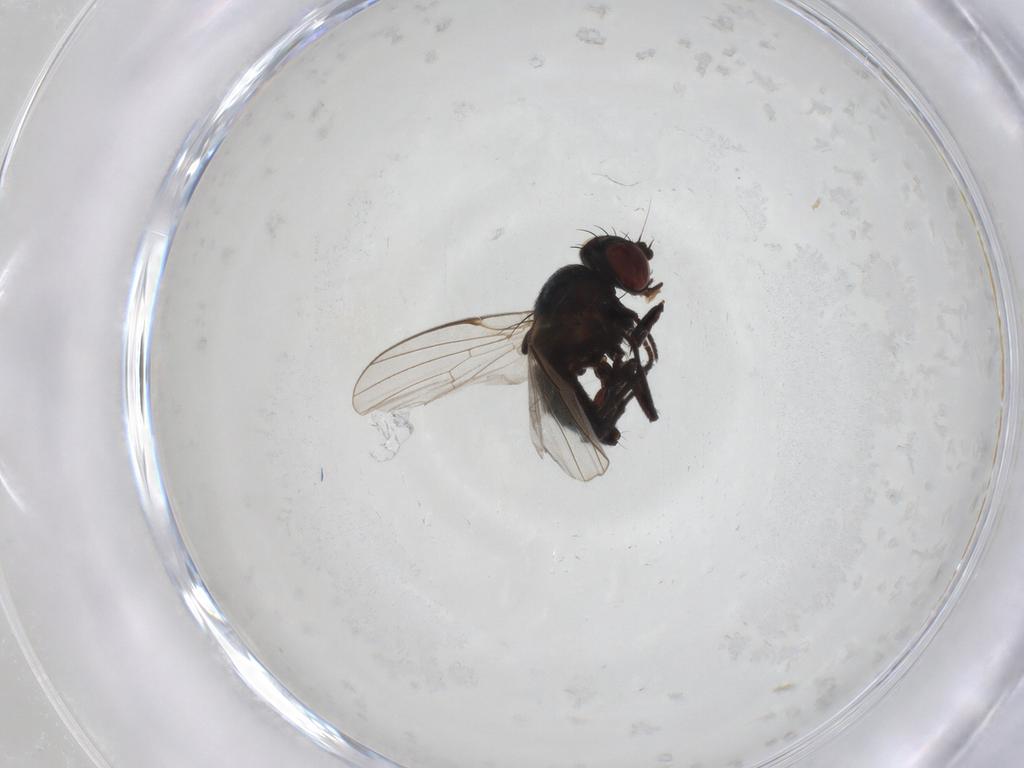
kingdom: Animalia
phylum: Arthropoda
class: Insecta
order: Diptera
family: Agromyzidae
